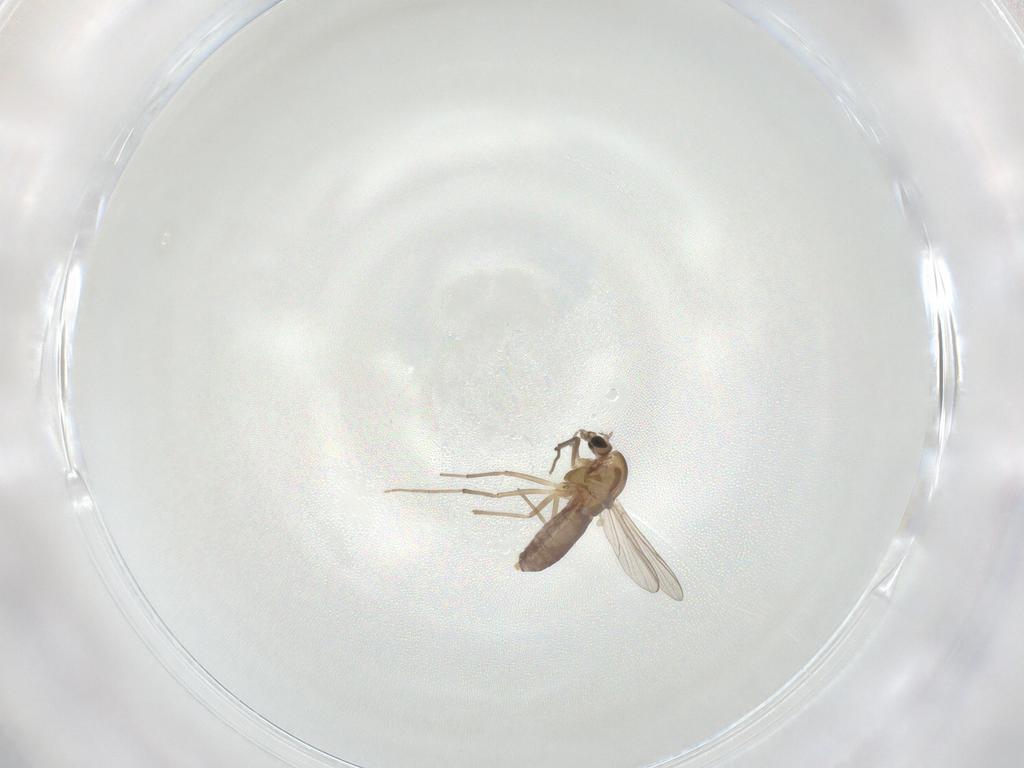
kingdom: Animalia
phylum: Arthropoda
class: Insecta
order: Diptera
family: Chironomidae
